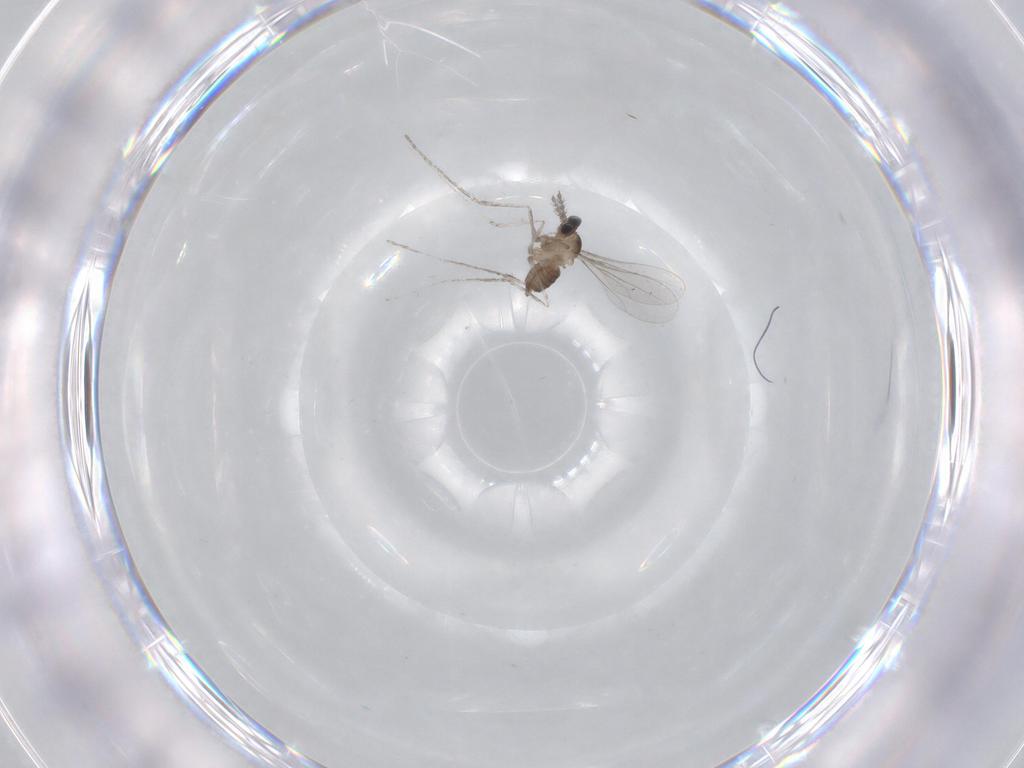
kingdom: Animalia
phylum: Arthropoda
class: Insecta
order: Diptera
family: Cecidomyiidae
